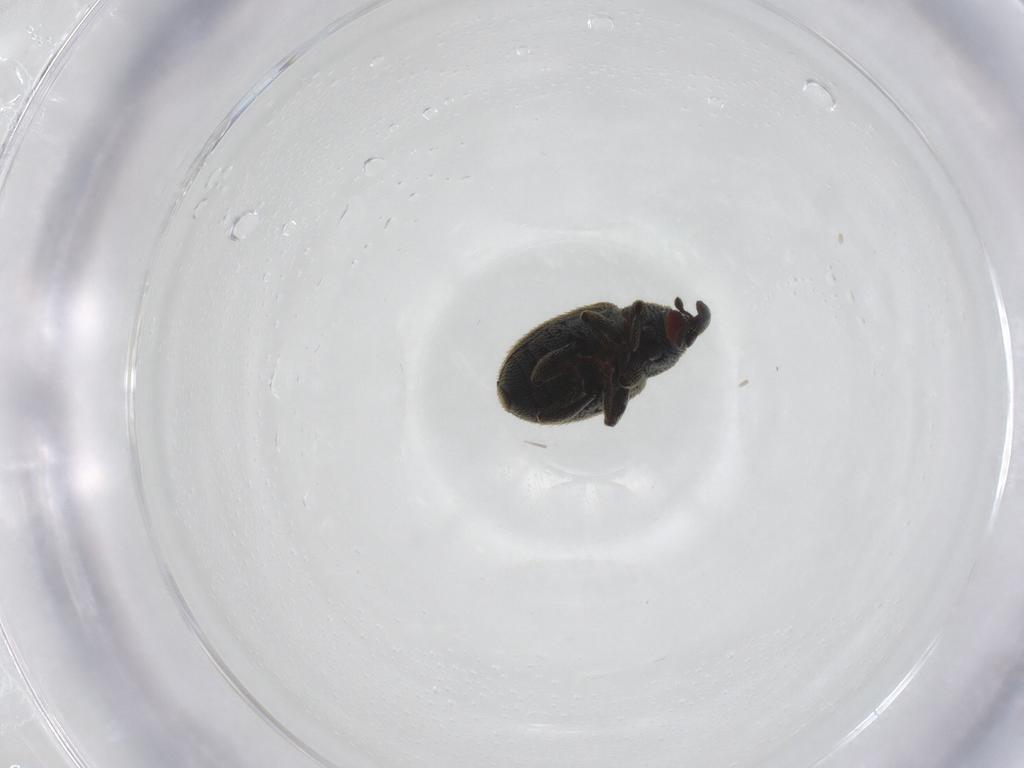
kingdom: Animalia
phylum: Arthropoda
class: Insecta
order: Coleoptera
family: Curculionidae
